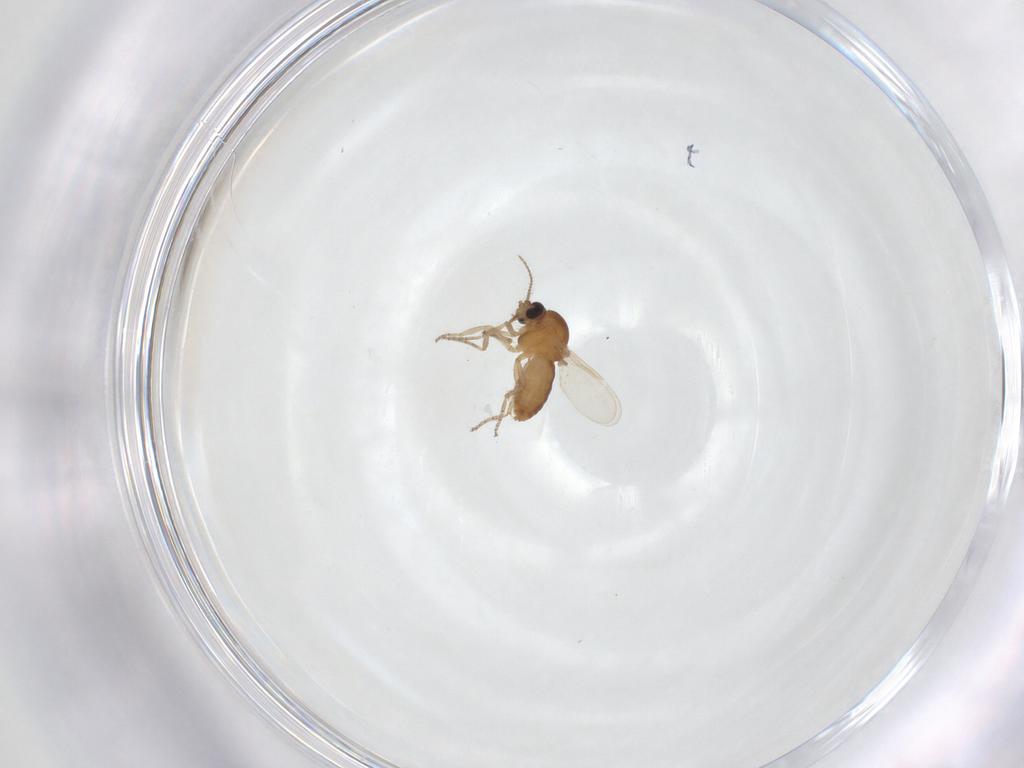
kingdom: Animalia
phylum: Arthropoda
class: Insecta
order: Diptera
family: Ceratopogonidae
